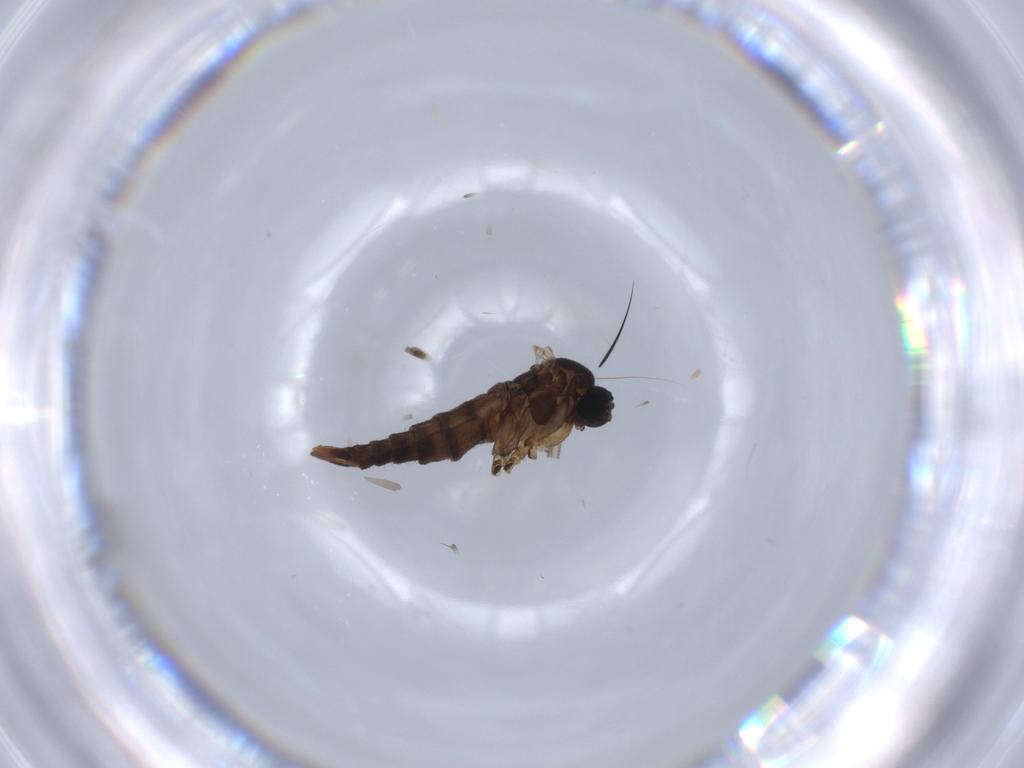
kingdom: Animalia
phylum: Arthropoda
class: Insecta
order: Diptera
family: Sciaridae
